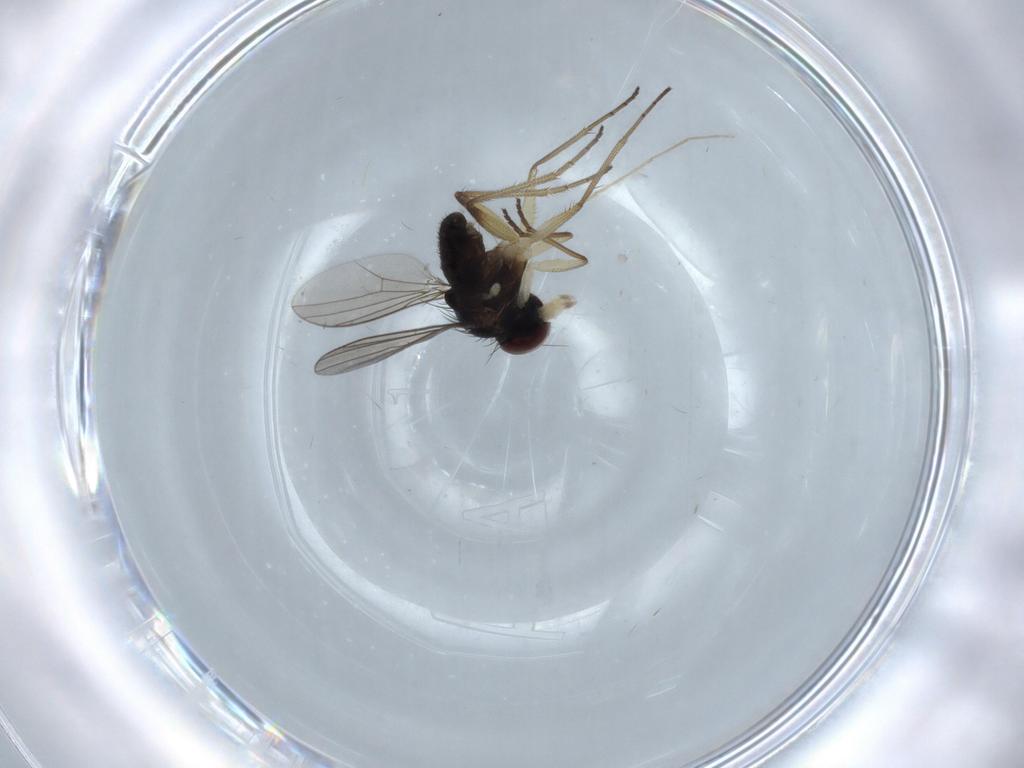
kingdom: Animalia
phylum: Arthropoda
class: Insecta
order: Diptera
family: Dolichopodidae
